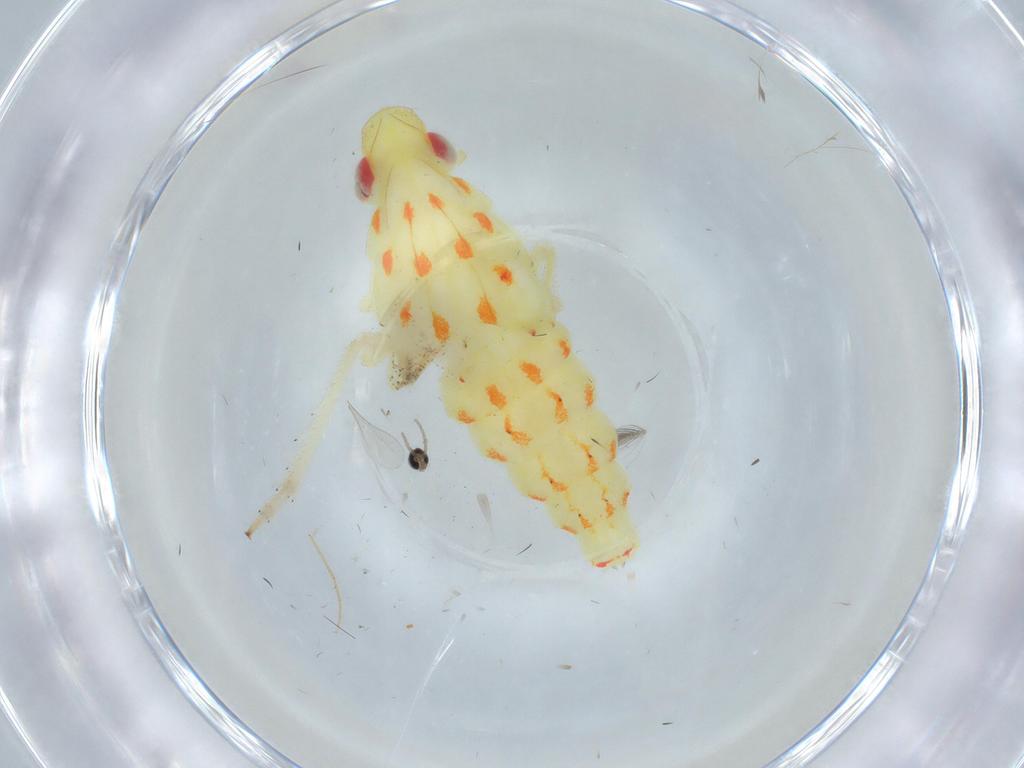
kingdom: Animalia
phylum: Arthropoda
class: Insecta
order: Hemiptera
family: Tropiduchidae
